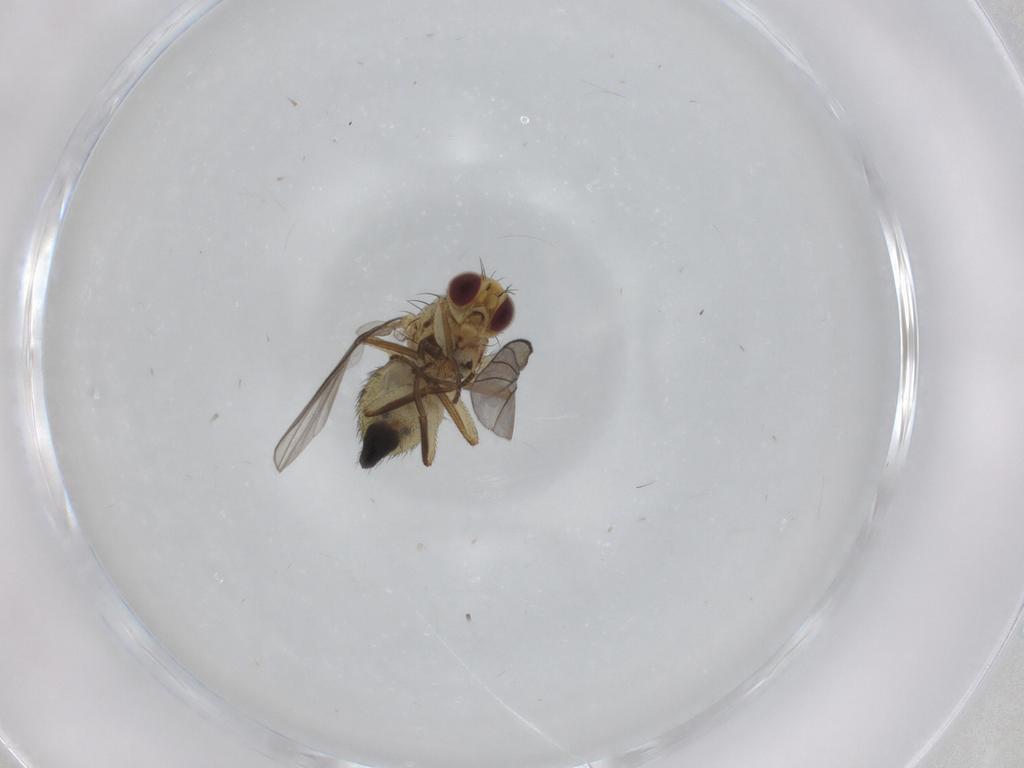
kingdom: Animalia
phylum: Arthropoda
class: Insecta
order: Diptera
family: Agromyzidae
